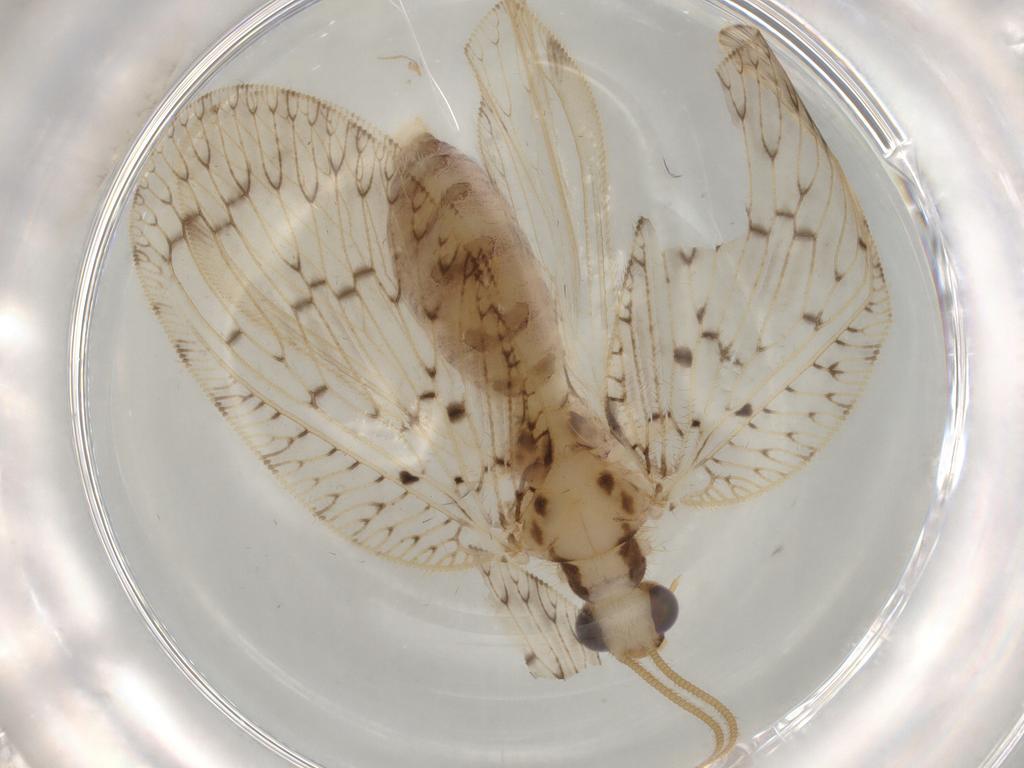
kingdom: Animalia
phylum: Arthropoda
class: Insecta
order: Neuroptera
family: Hemerobiidae
